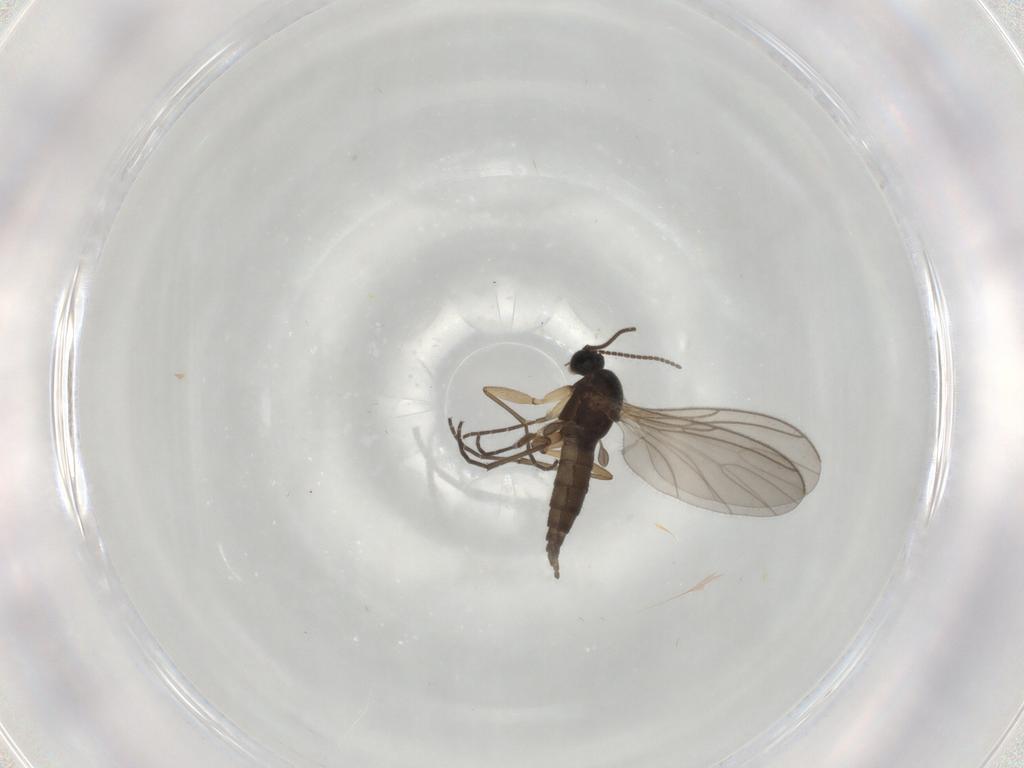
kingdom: Animalia
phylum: Arthropoda
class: Insecta
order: Diptera
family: Sciaridae
